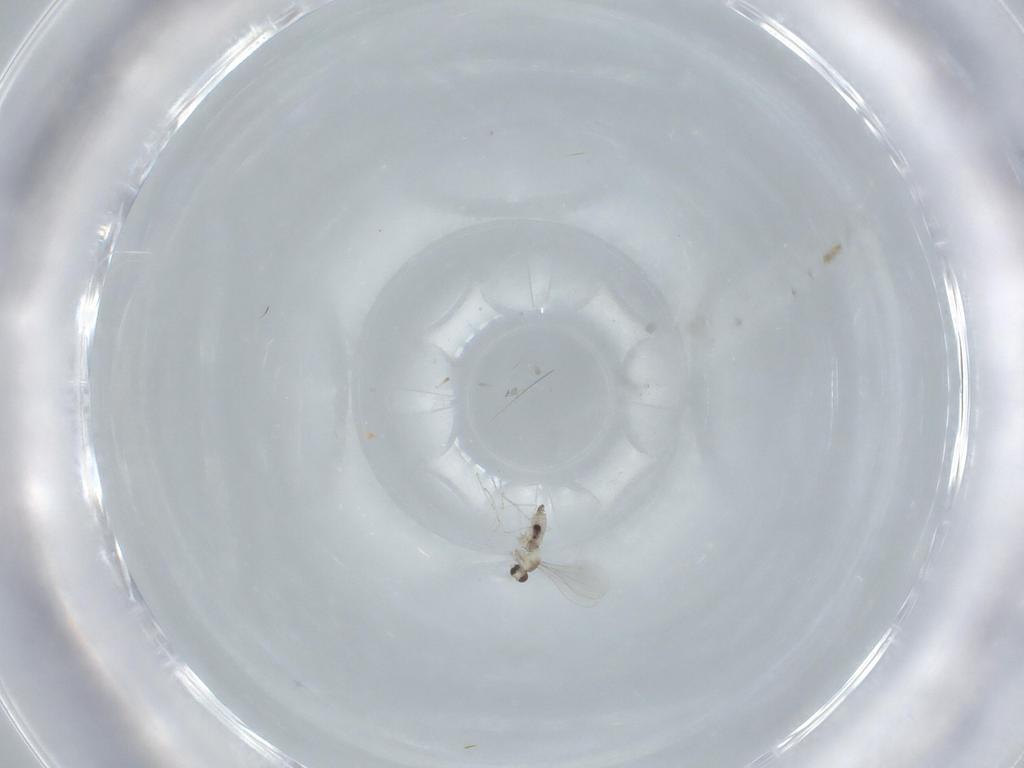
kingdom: Animalia
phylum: Arthropoda
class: Insecta
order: Diptera
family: Cecidomyiidae
